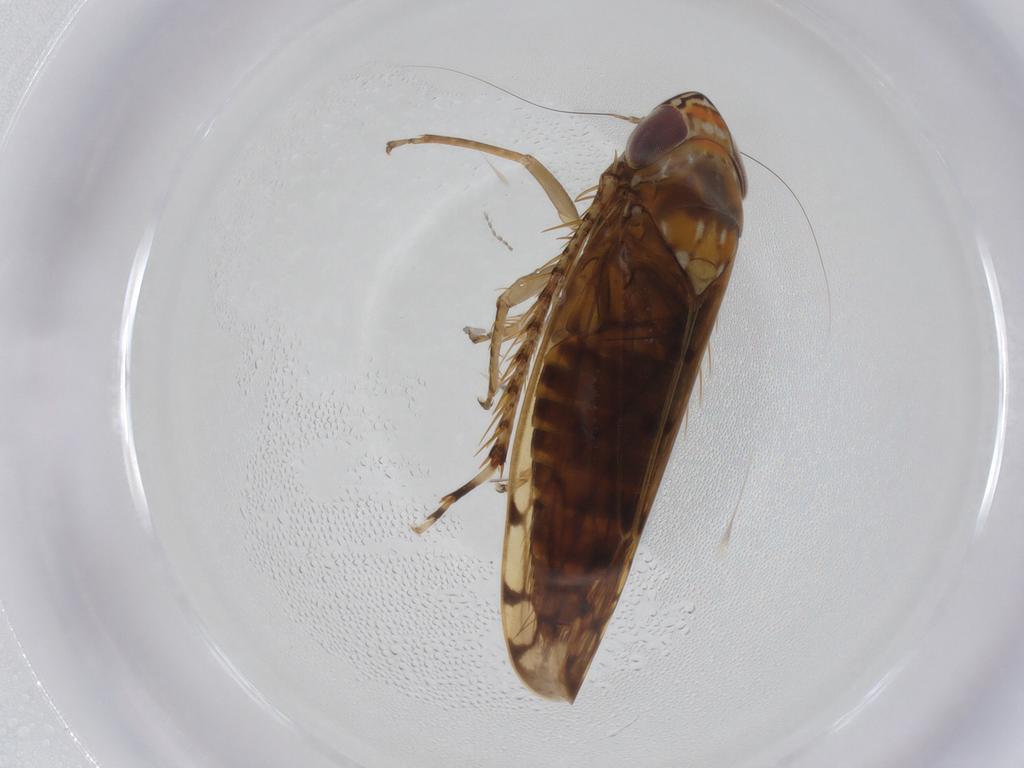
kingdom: Animalia
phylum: Arthropoda
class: Insecta
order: Hemiptera
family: Cicadellidae
